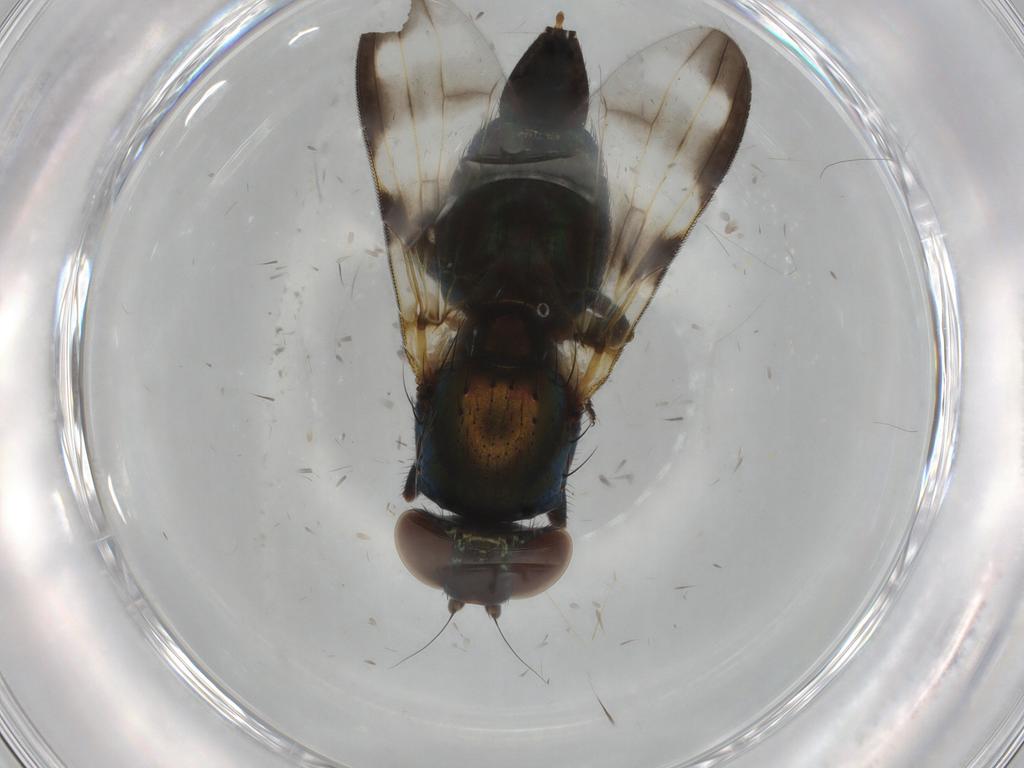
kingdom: Animalia
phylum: Arthropoda
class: Insecta
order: Diptera
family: Ulidiidae
